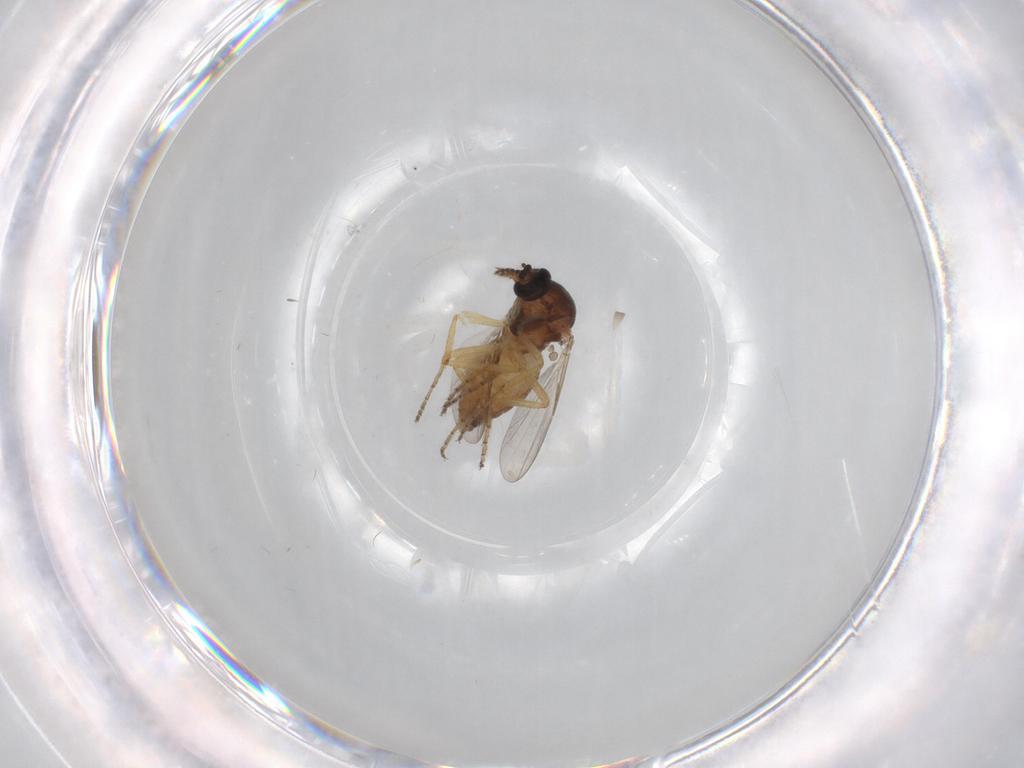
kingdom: Animalia
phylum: Arthropoda
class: Insecta
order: Diptera
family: Ceratopogonidae
